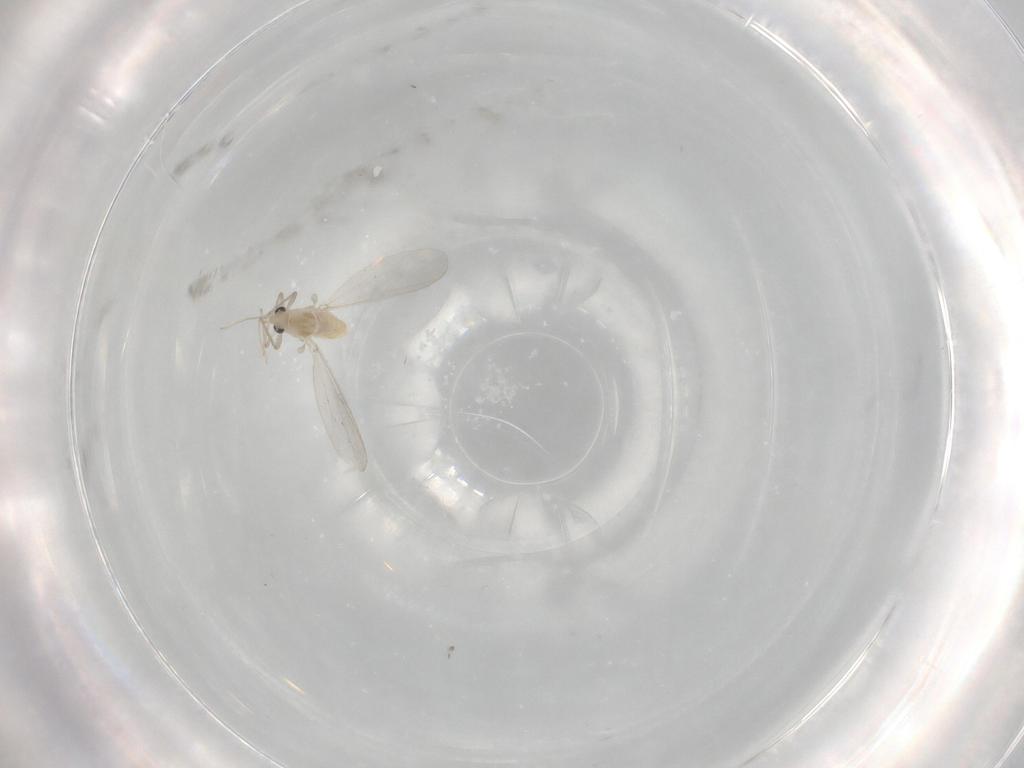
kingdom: Animalia
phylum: Arthropoda
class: Insecta
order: Diptera
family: Chironomidae
